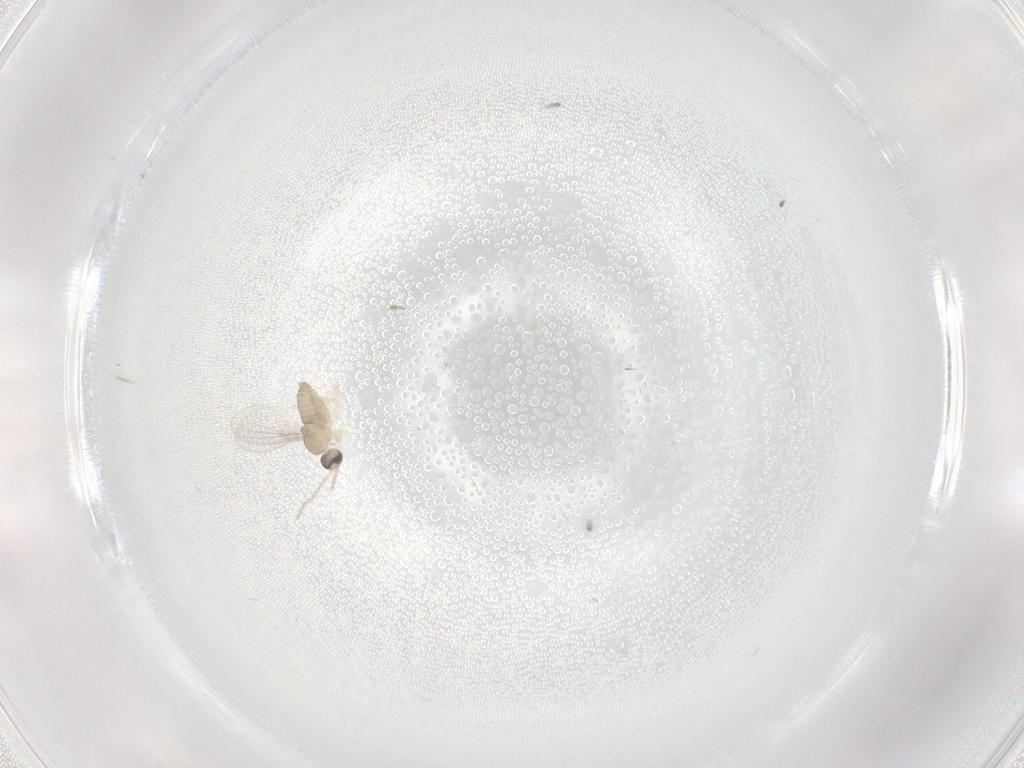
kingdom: Animalia
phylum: Arthropoda
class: Insecta
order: Diptera
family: Cecidomyiidae
